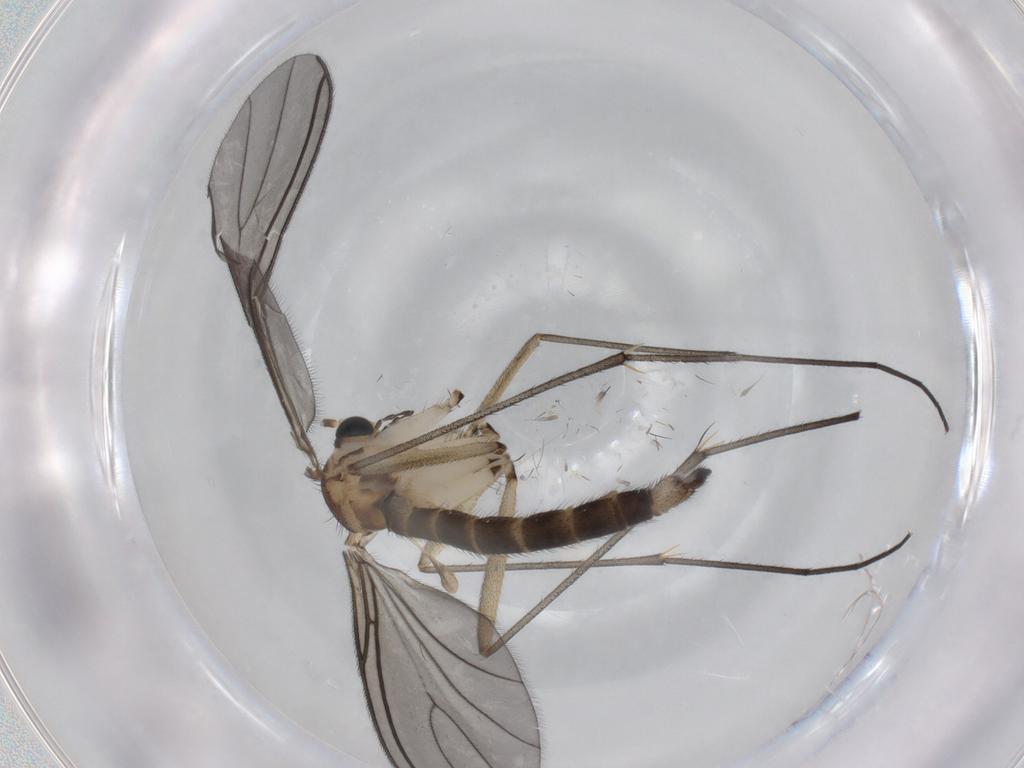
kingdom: Animalia
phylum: Arthropoda
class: Insecta
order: Diptera
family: Sciaridae
